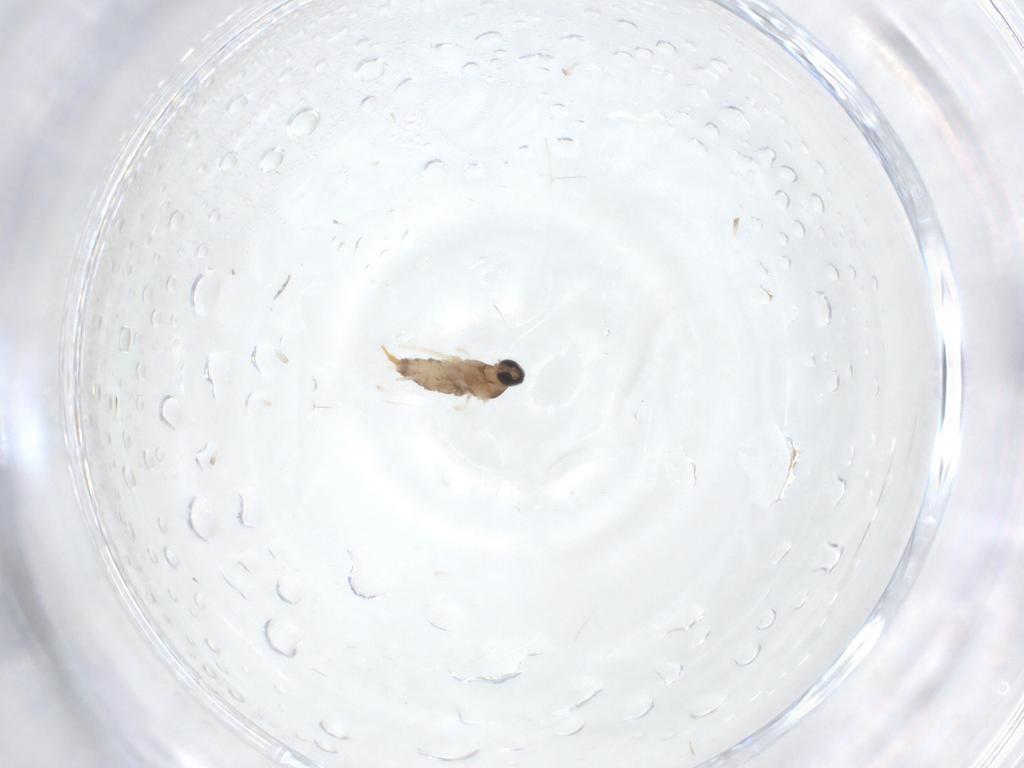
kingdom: Animalia
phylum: Arthropoda
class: Insecta
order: Diptera
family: Cecidomyiidae
